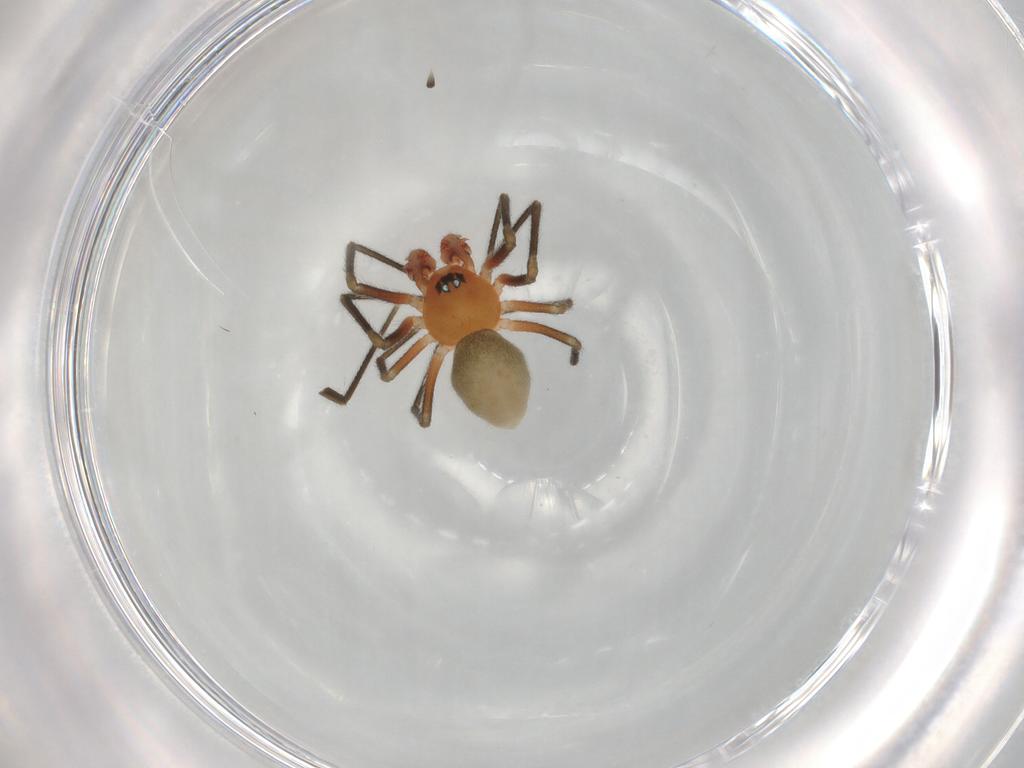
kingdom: Animalia
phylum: Arthropoda
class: Arachnida
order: Araneae
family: Linyphiidae
